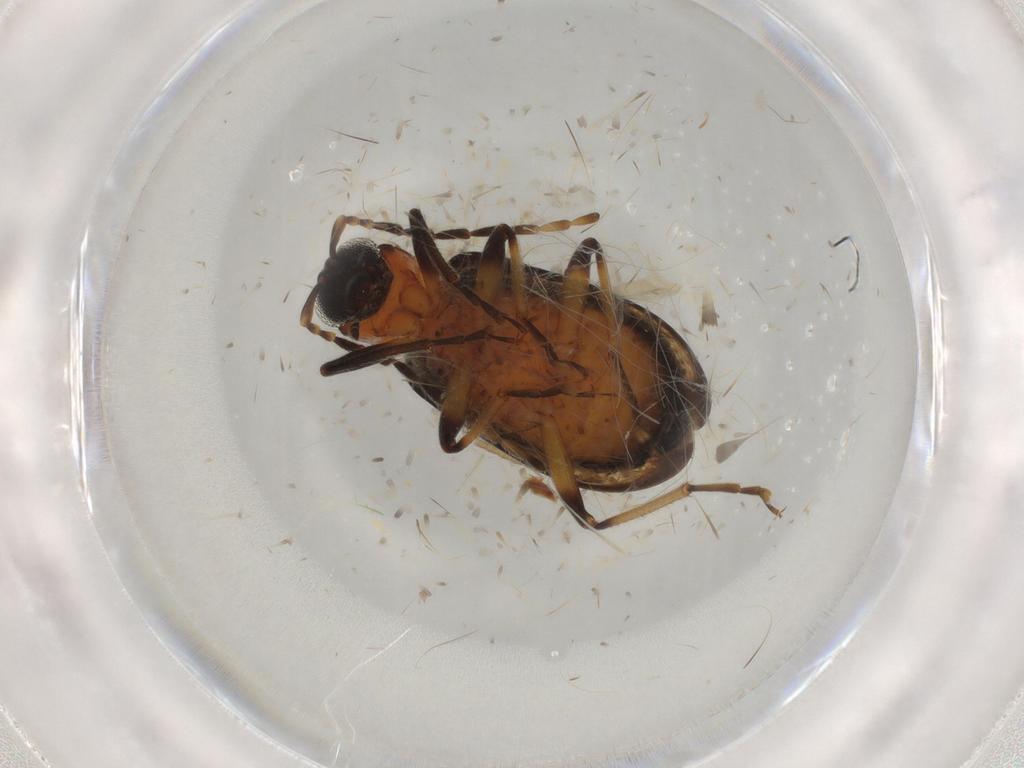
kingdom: Animalia
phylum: Arthropoda
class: Insecta
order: Coleoptera
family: Chrysomelidae
